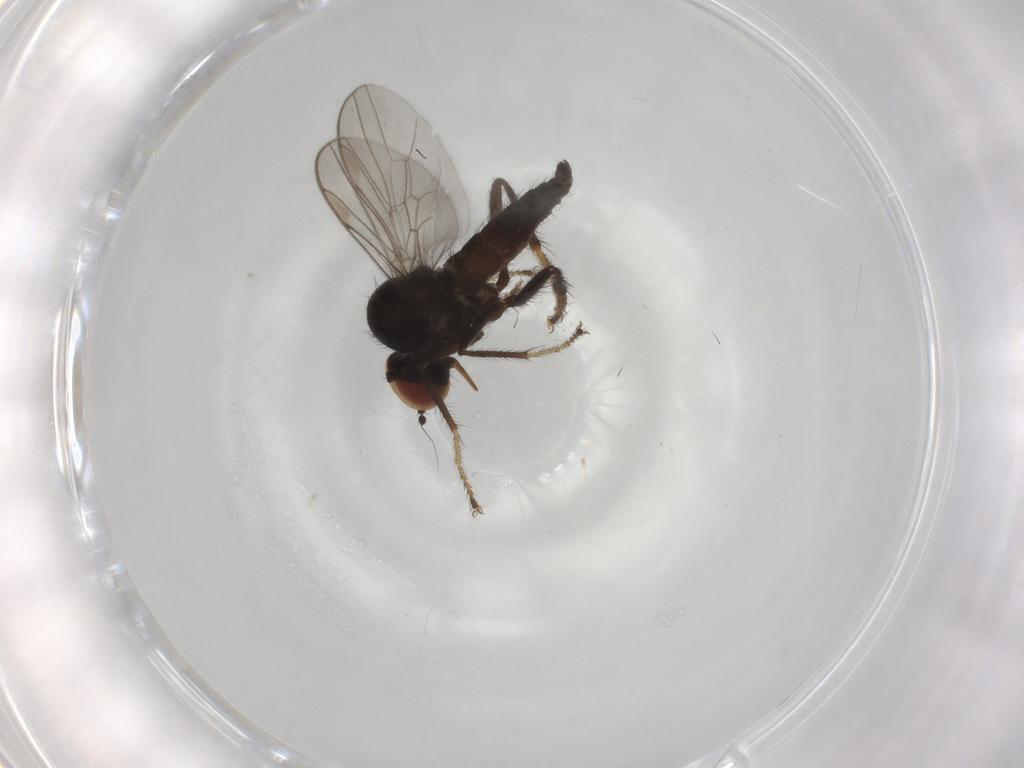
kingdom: Animalia
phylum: Arthropoda
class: Insecta
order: Diptera
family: Hybotidae
